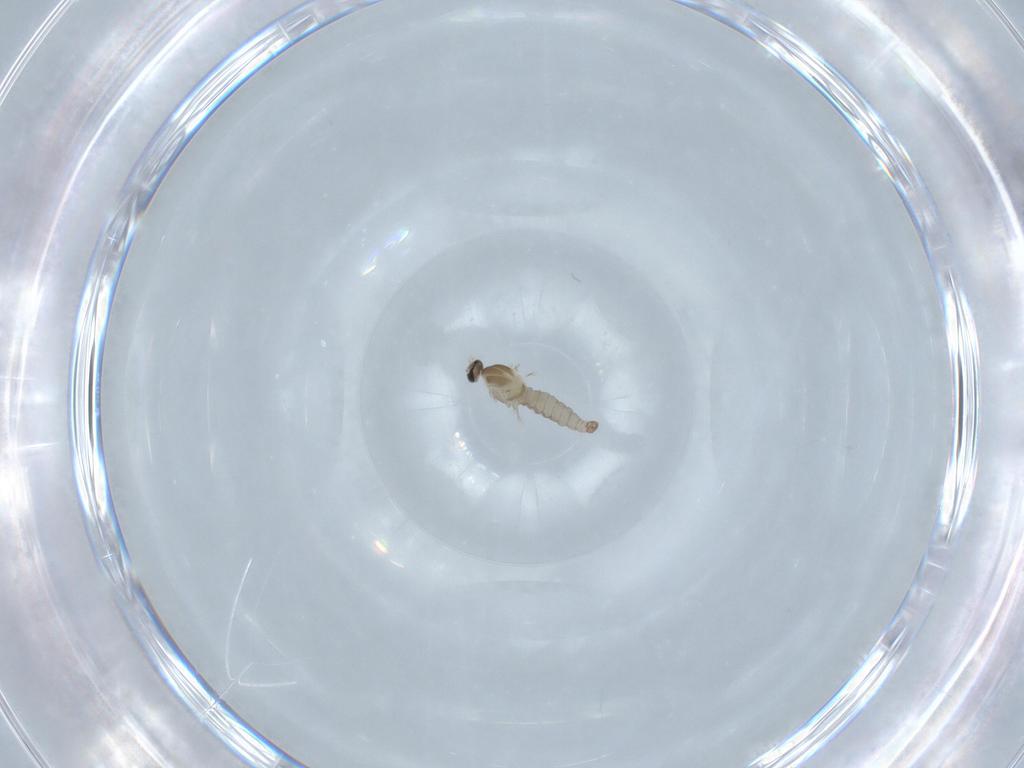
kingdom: Animalia
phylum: Arthropoda
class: Insecta
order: Diptera
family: Cecidomyiidae
